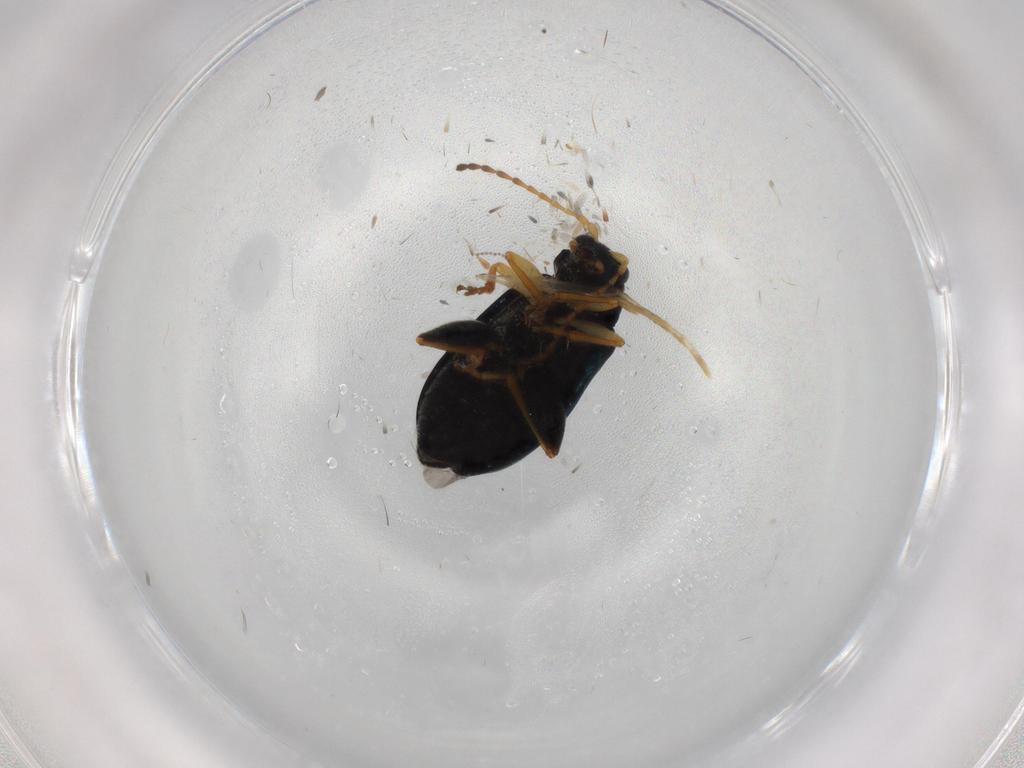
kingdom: Animalia
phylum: Arthropoda
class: Insecta
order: Coleoptera
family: Chrysomelidae
